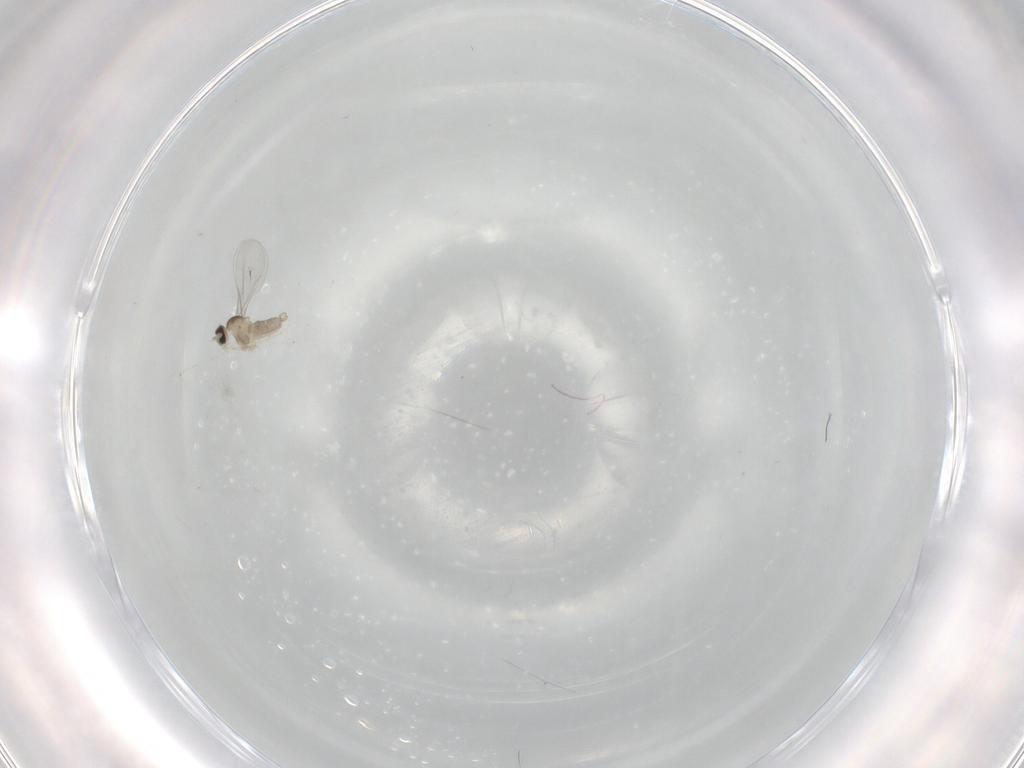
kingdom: Animalia
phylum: Arthropoda
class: Insecta
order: Diptera
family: Cecidomyiidae
